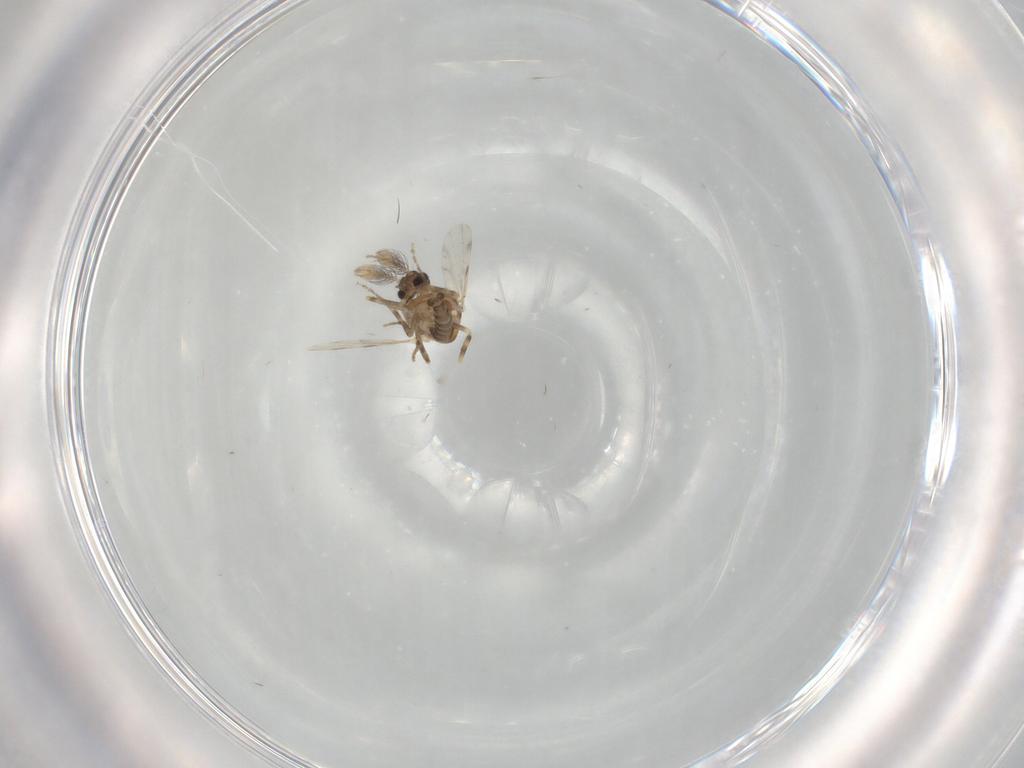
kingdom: Animalia
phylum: Arthropoda
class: Insecta
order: Diptera
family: Ceratopogonidae
